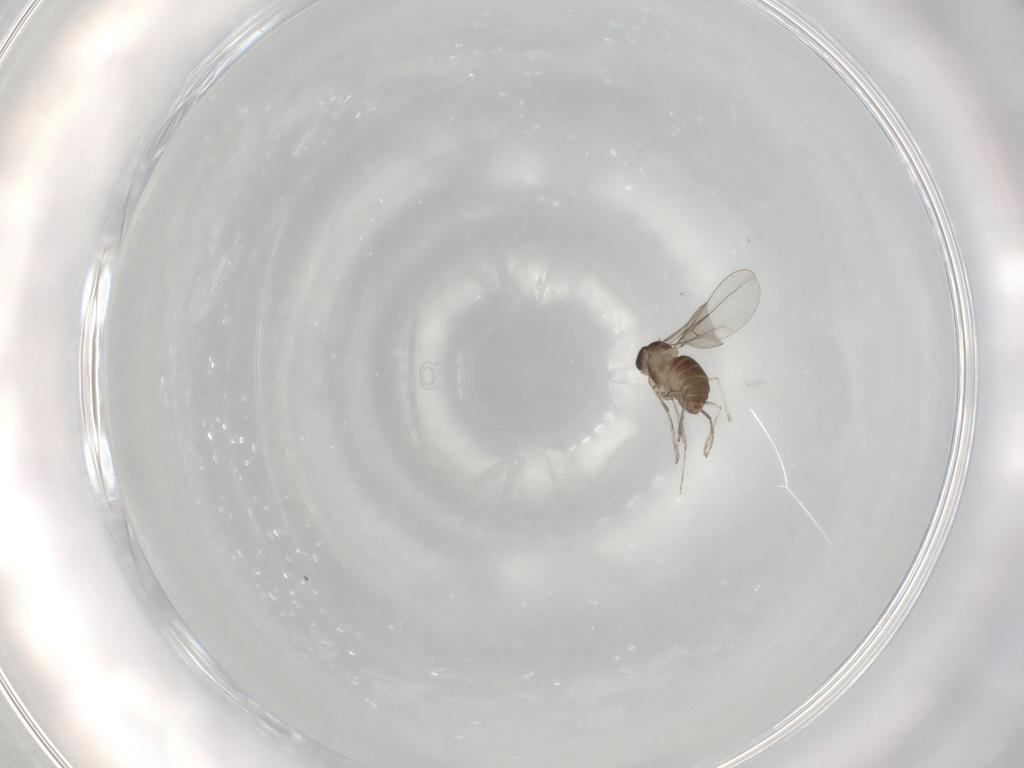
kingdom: Animalia
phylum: Arthropoda
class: Insecta
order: Diptera
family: Cecidomyiidae
